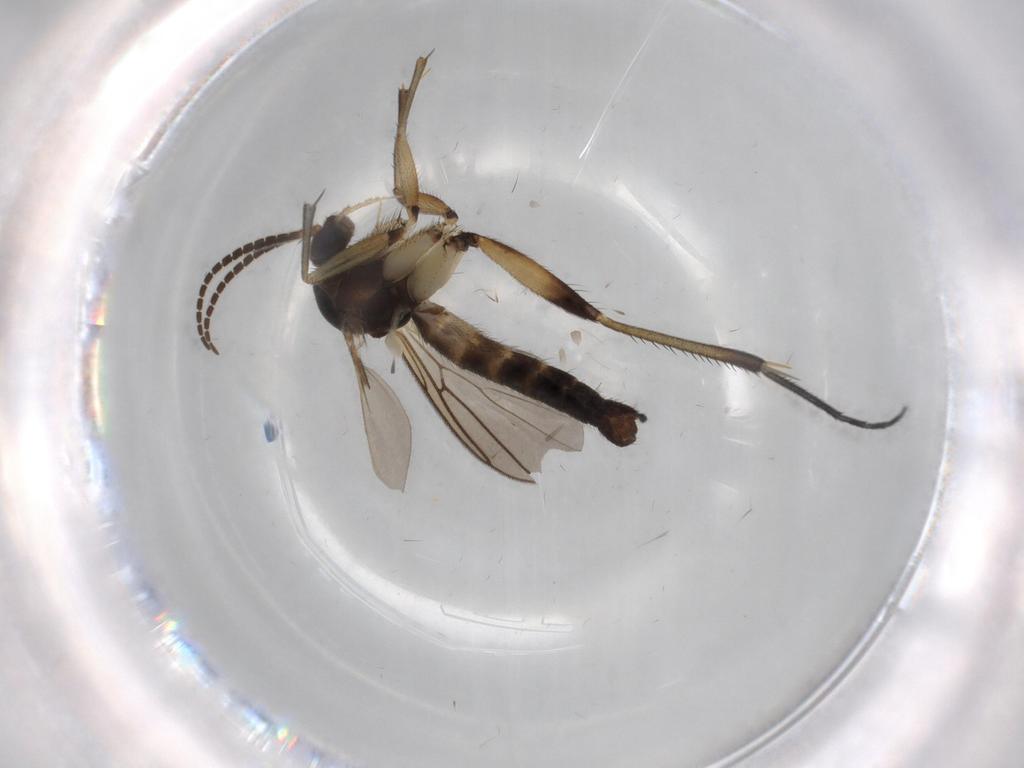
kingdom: Animalia
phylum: Arthropoda
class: Insecta
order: Diptera
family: Mycetophilidae
